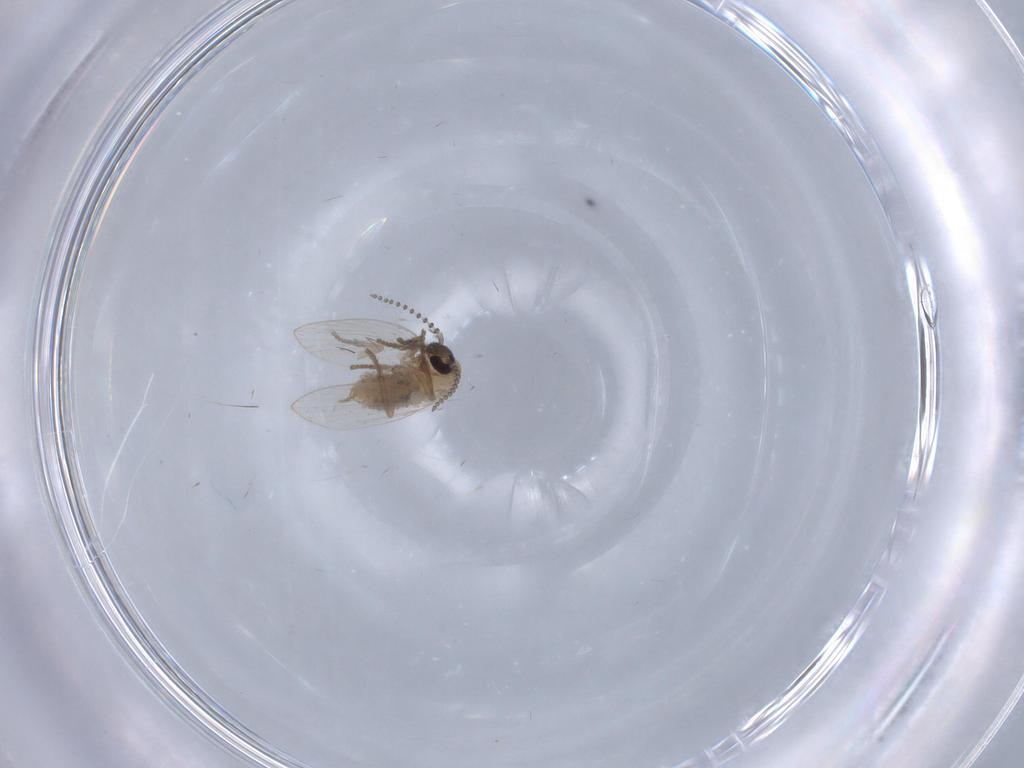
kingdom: Animalia
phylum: Arthropoda
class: Insecta
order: Diptera
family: Psychodidae
